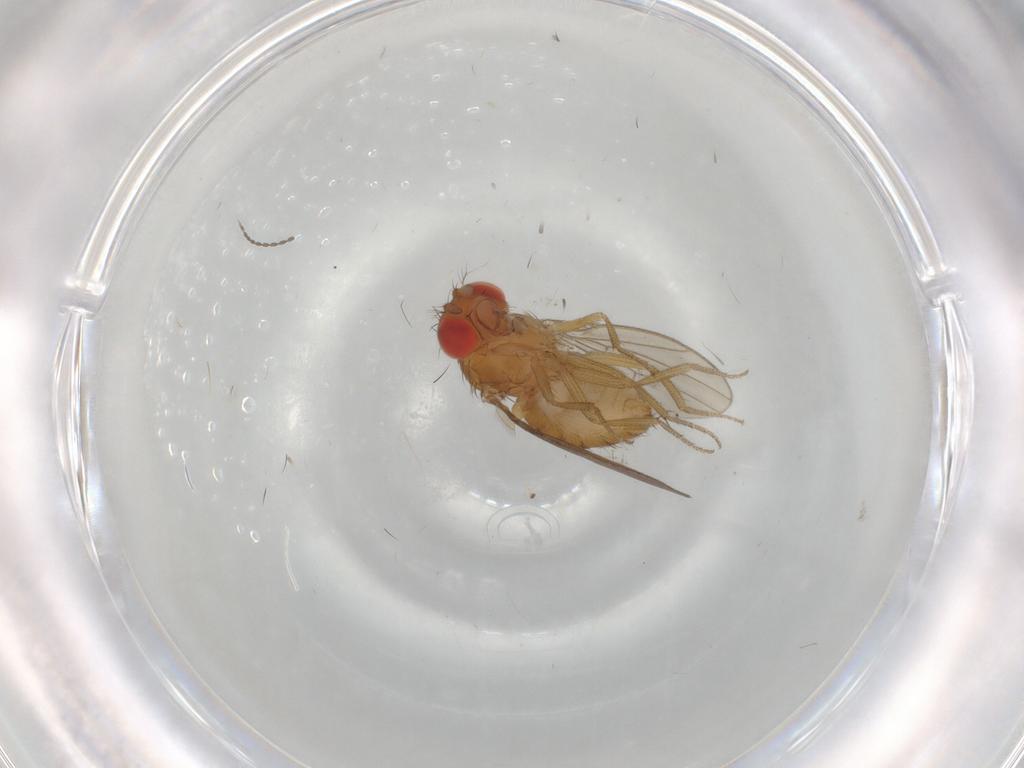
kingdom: Animalia
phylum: Arthropoda
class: Insecta
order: Diptera
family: Drosophilidae
